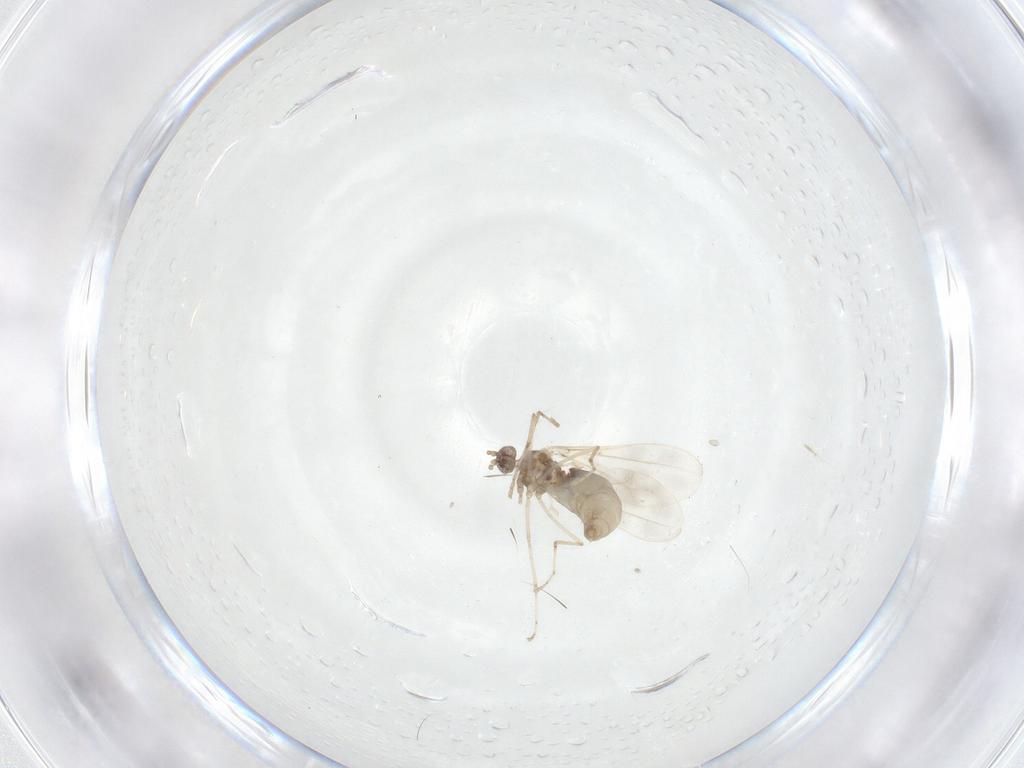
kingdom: Animalia
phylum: Arthropoda
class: Insecta
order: Diptera
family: Cecidomyiidae
